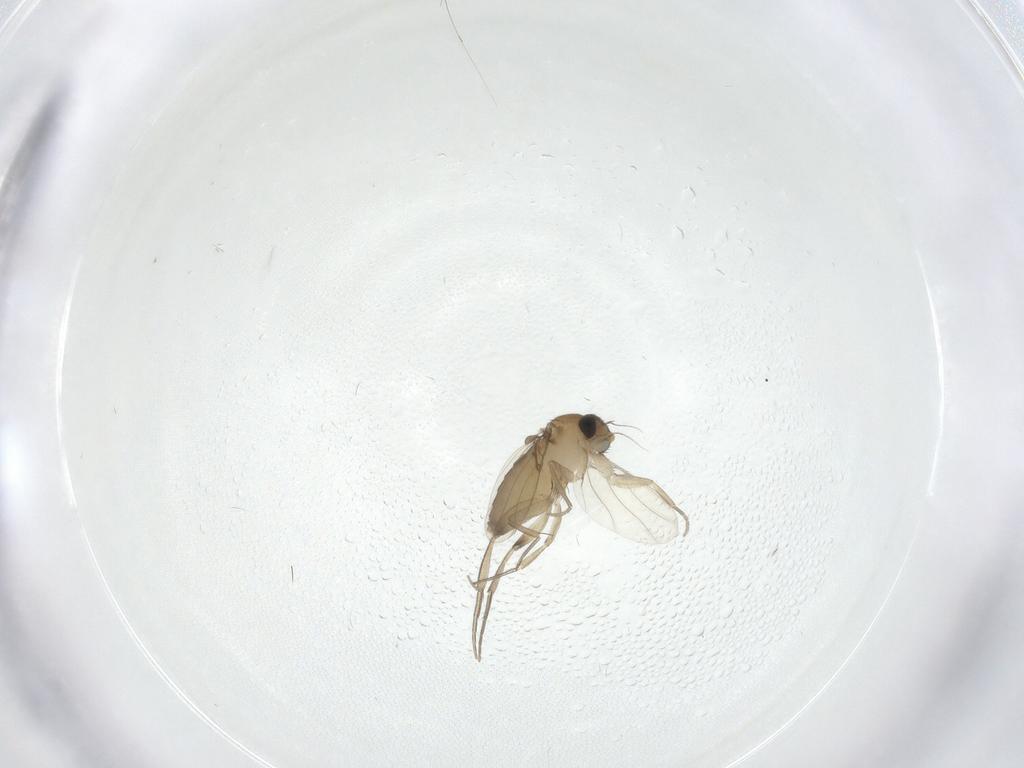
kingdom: Animalia
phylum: Arthropoda
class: Insecta
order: Diptera
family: Phoridae
